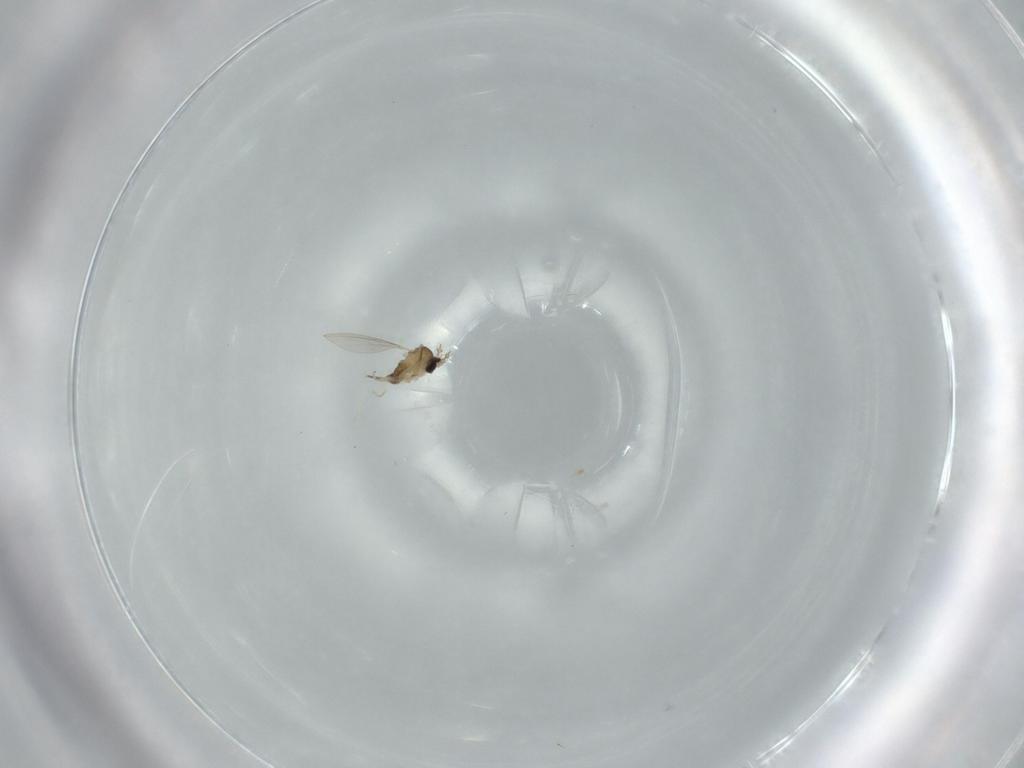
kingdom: Animalia
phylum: Arthropoda
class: Insecta
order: Diptera
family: Cecidomyiidae
